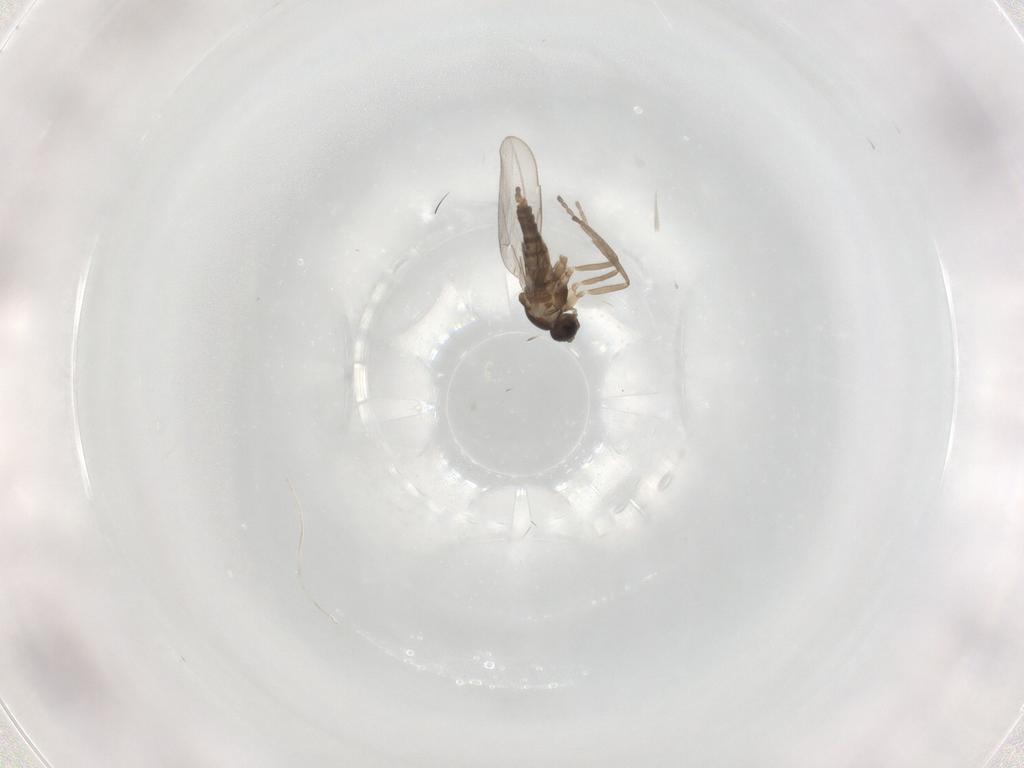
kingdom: Animalia
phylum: Arthropoda
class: Insecta
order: Diptera
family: Cecidomyiidae
